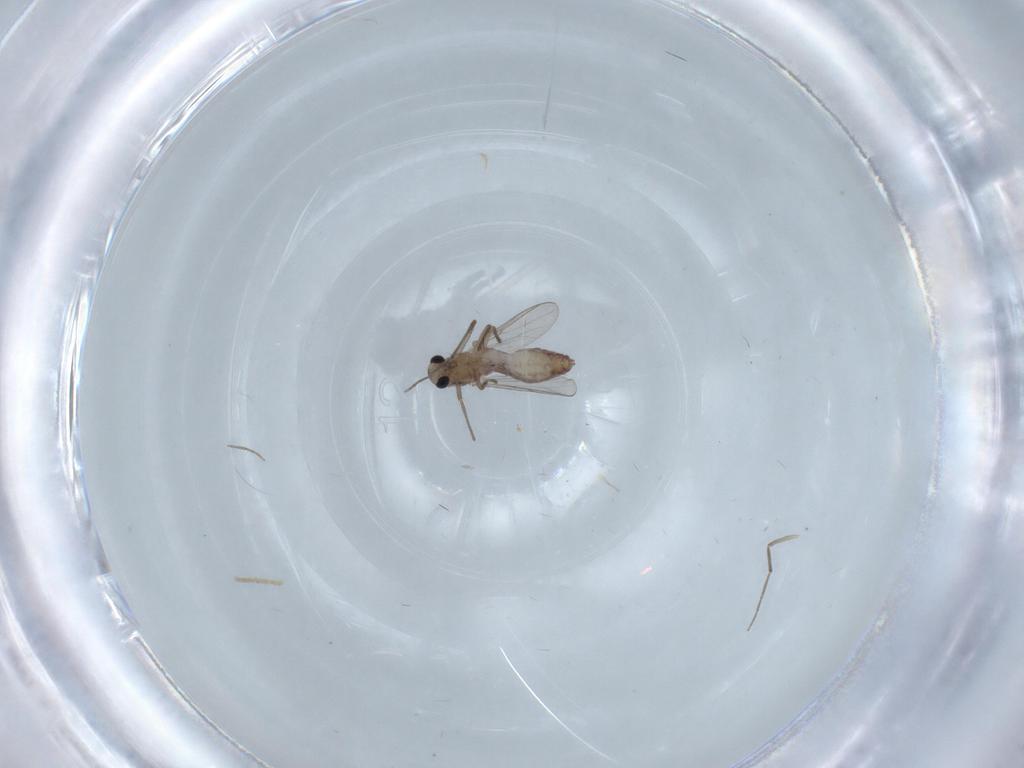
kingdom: Animalia
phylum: Arthropoda
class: Insecta
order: Diptera
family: Chironomidae
